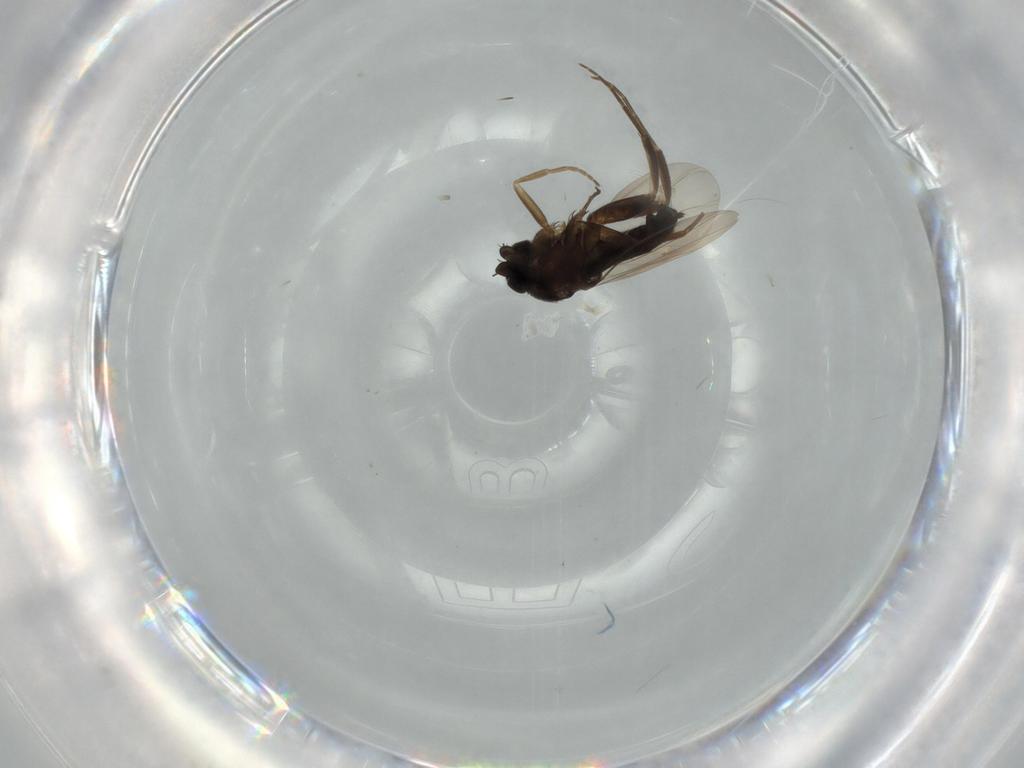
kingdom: Animalia
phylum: Arthropoda
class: Insecta
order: Diptera
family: Phoridae
